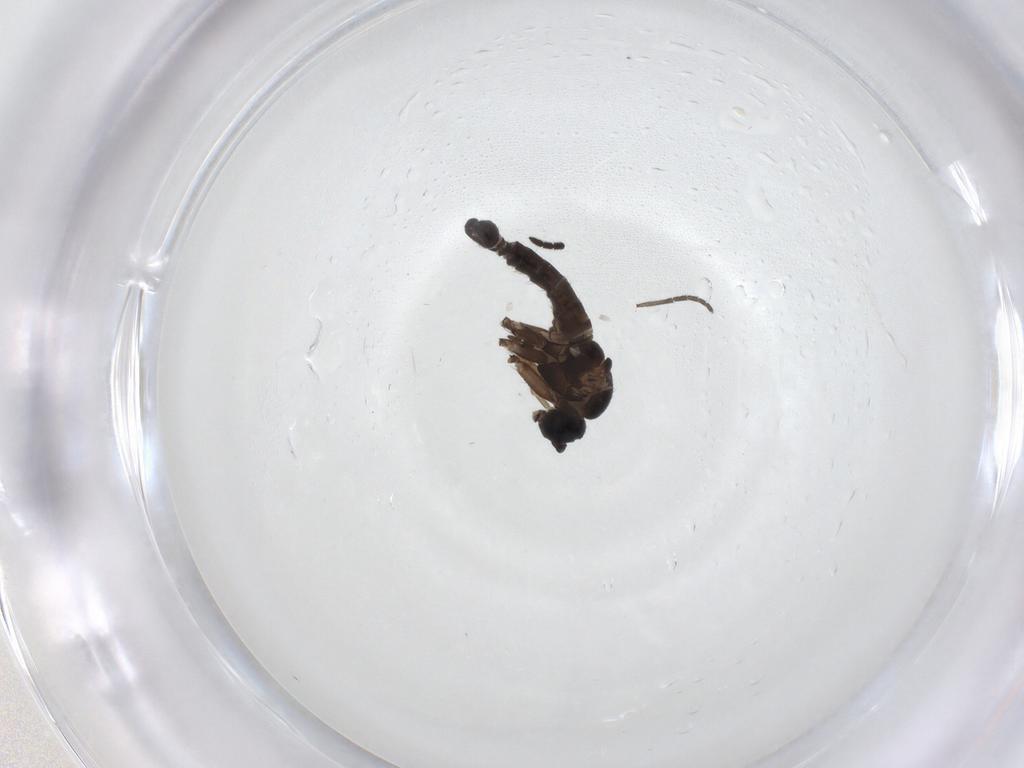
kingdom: Animalia
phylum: Arthropoda
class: Insecta
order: Diptera
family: Sciaridae
